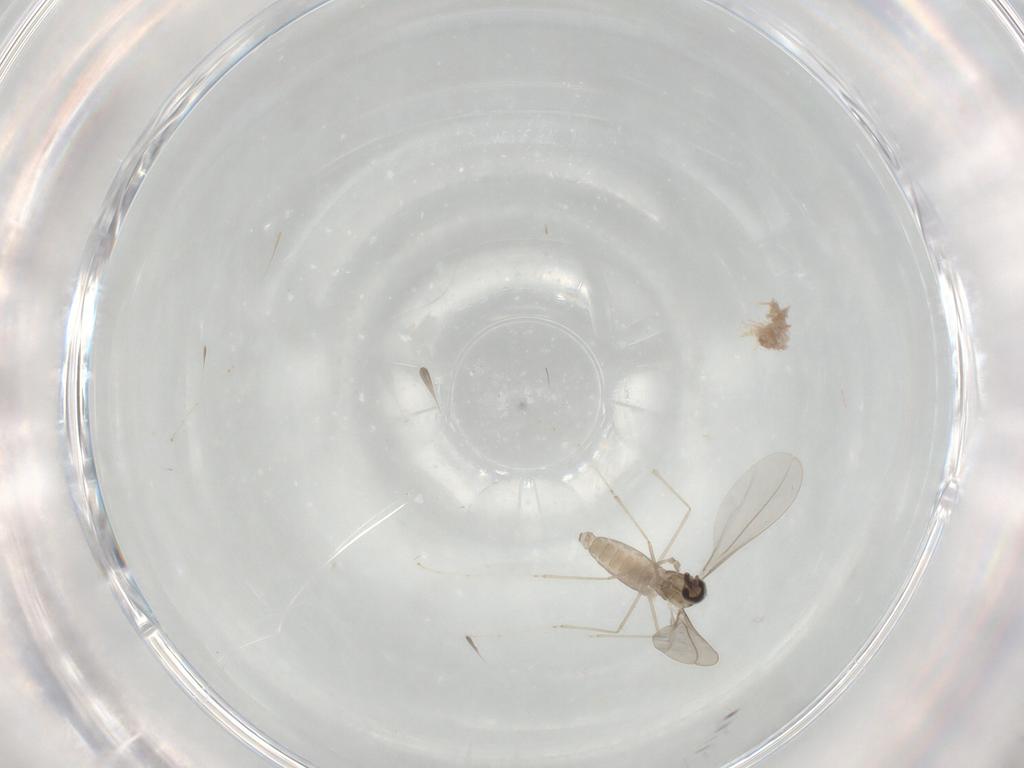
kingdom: Animalia
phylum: Arthropoda
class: Insecta
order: Diptera
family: Cecidomyiidae
